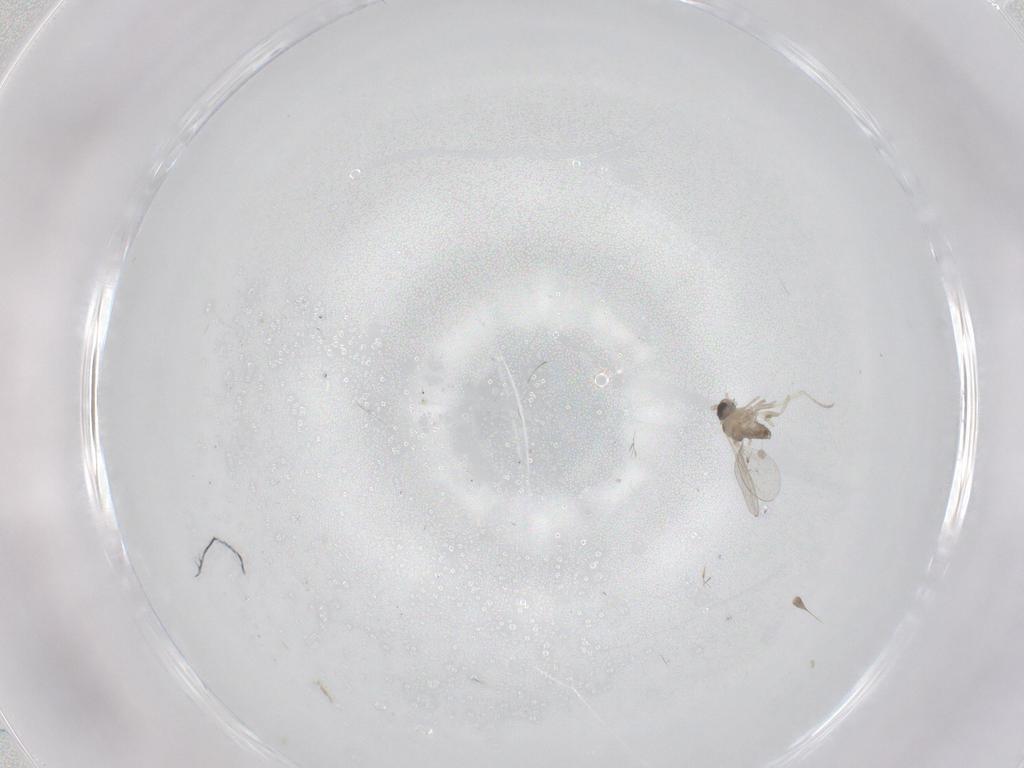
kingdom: Animalia
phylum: Arthropoda
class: Insecta
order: Diptera
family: Cecidomyiidae
